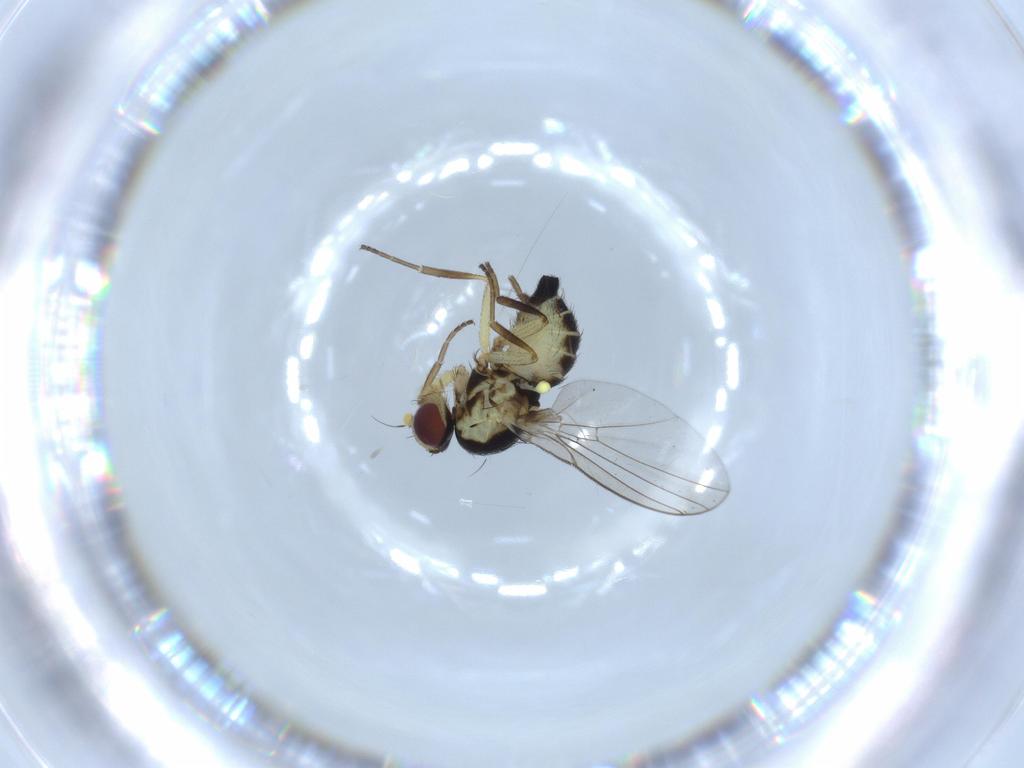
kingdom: Animalia
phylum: Arthropoda
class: Insecta
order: Diptera
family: Agromyzidae
